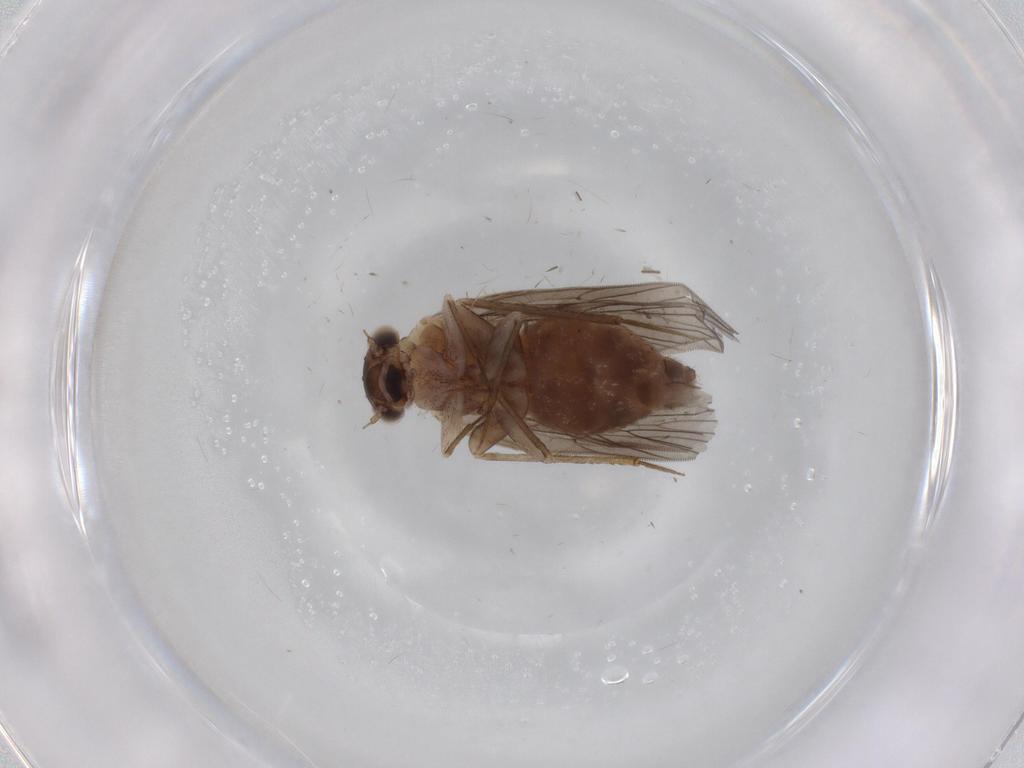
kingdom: Animalia
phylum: Arthropoda
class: Insecta
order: Psocodea
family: Lepidopsocidae
